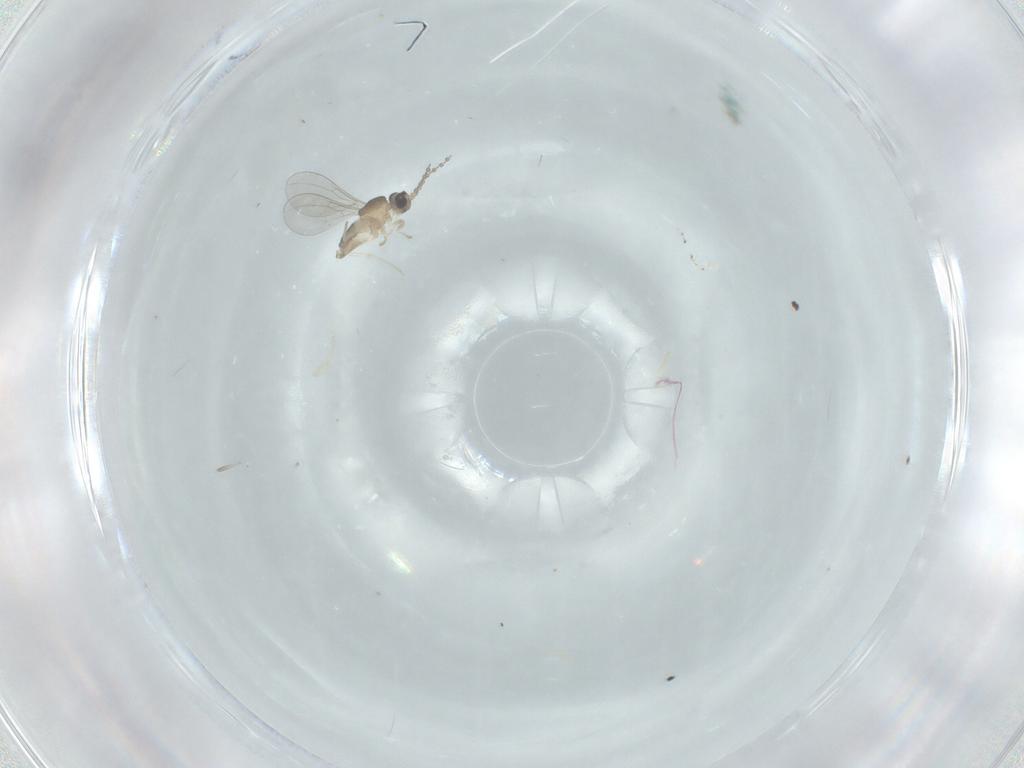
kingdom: Animalia
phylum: Arthropoda
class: Insecta
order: Diptera
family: Cecidomyiidae
